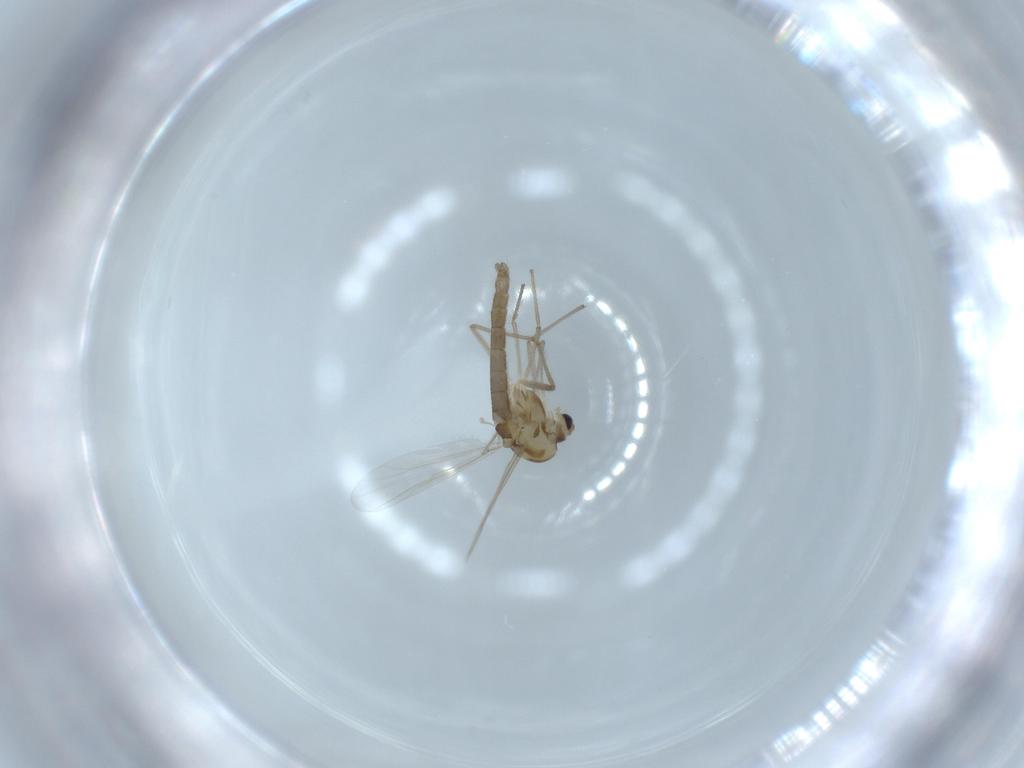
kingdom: Animalia
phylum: Arthropoda
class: Insecta
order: Diptera
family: Chironomidae
